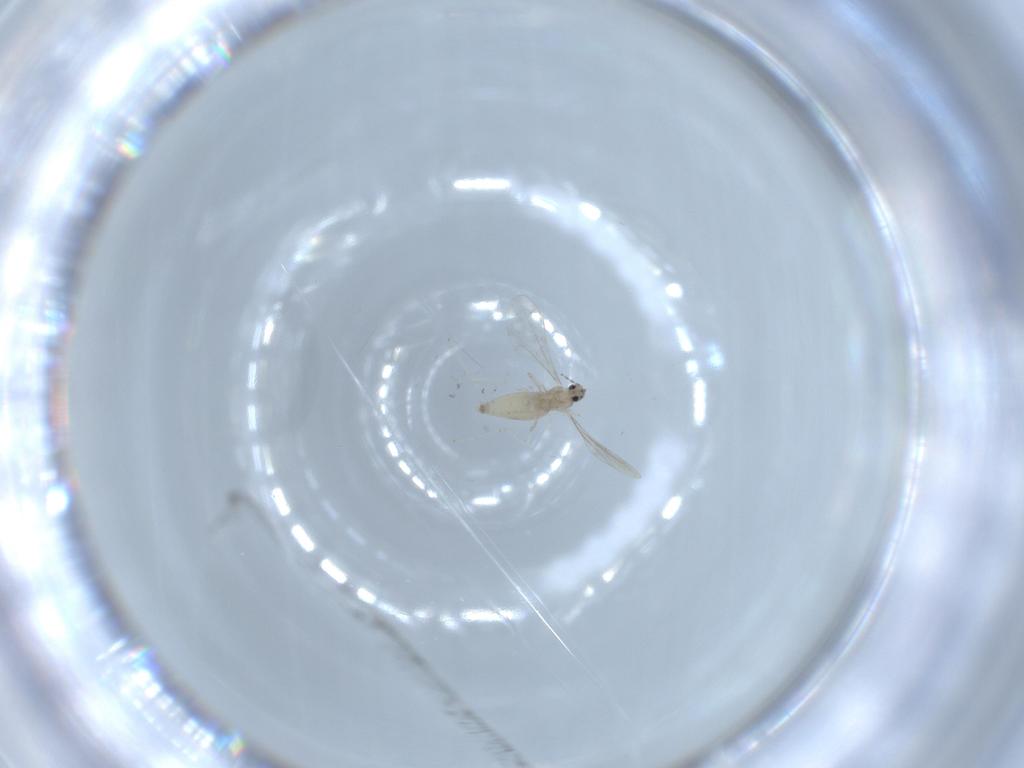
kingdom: Animalia
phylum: Arthropoda
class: Insecta
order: Diptera
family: Cecidomyiidae
